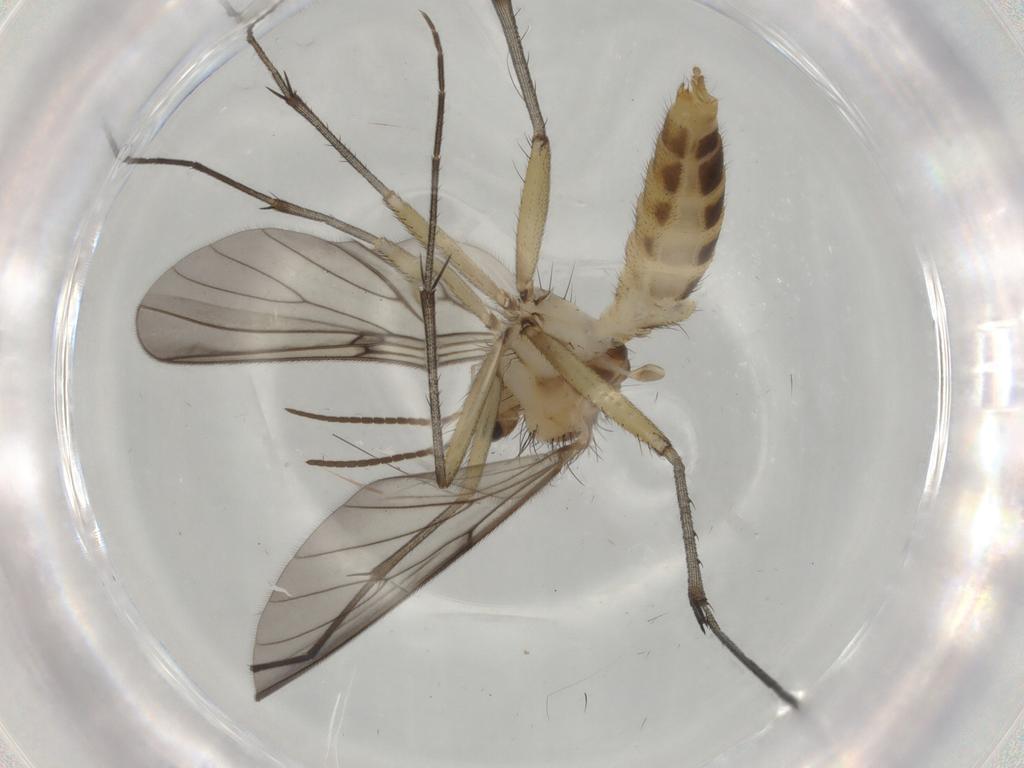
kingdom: Animalia
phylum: Arthropoda
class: Insecta
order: Diptera
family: Mycetophilidae
